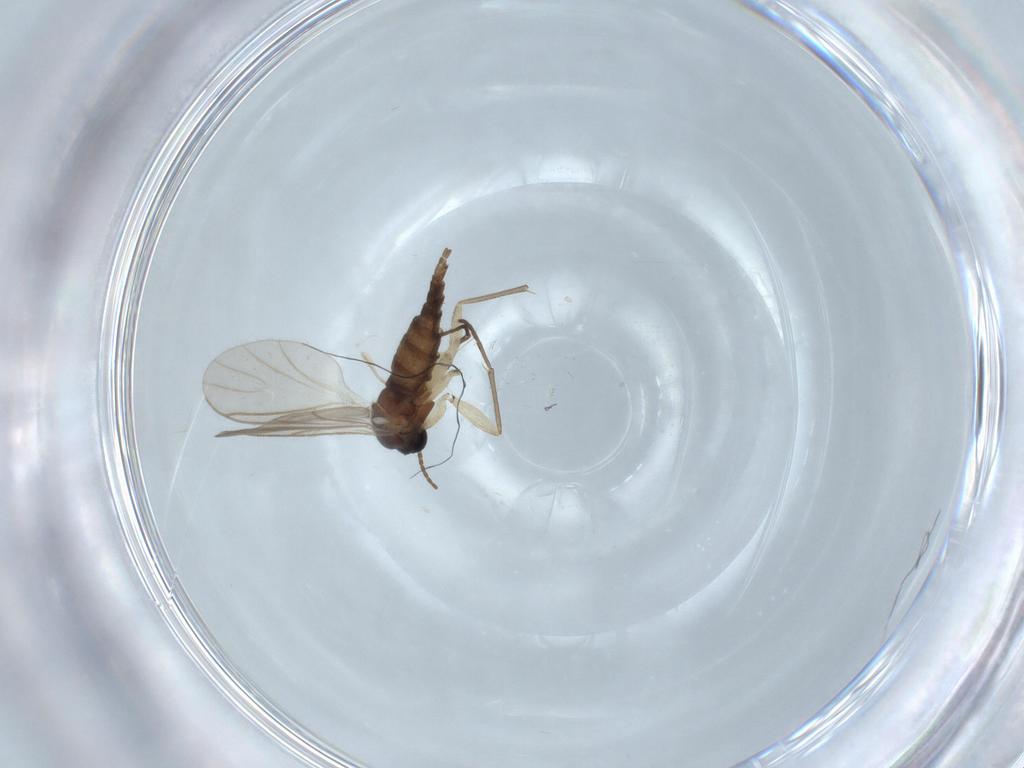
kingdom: Animalia
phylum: Arthropoda
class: Insecta
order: Diptera
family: Sciaridae
